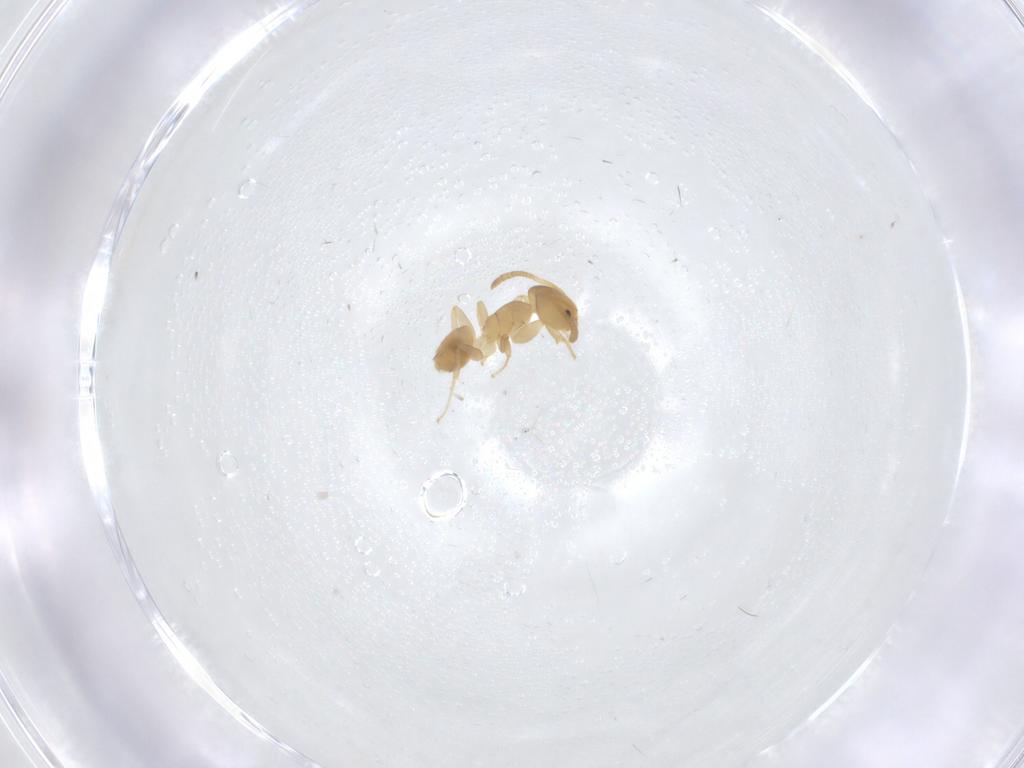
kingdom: Animalia
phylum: Arthropoda
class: Insecta
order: Hymenoptera
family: Formicidae
